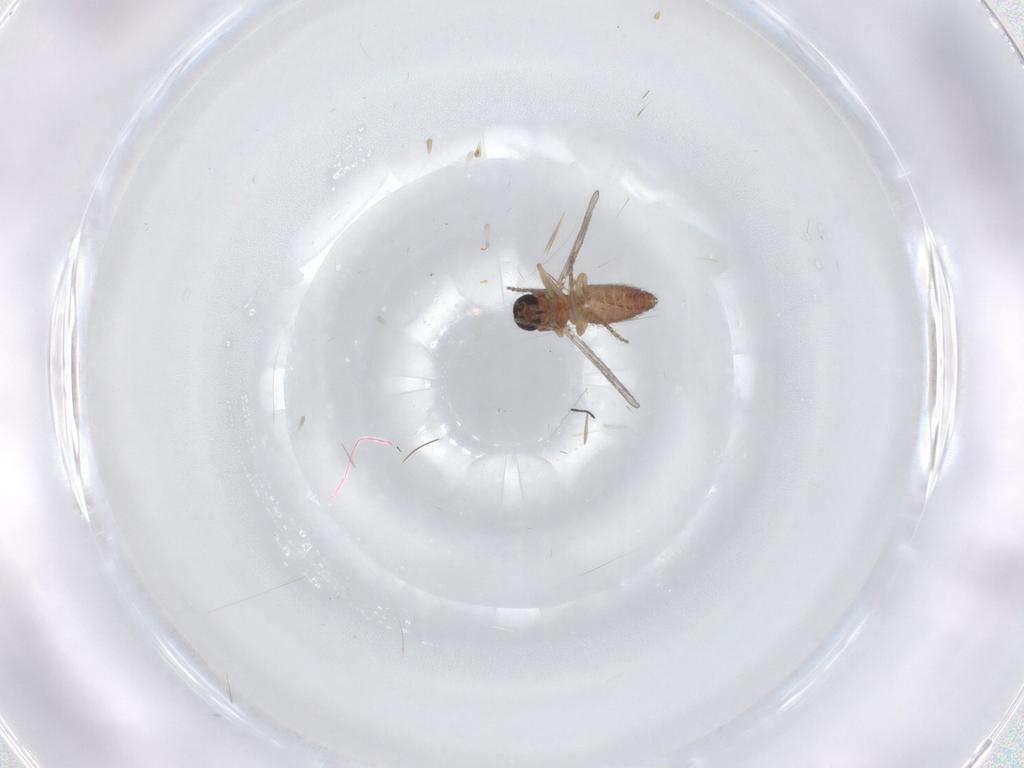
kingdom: Animalia
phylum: Arthropoda
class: Insecta
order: Diptera
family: Ceratopogonidae
